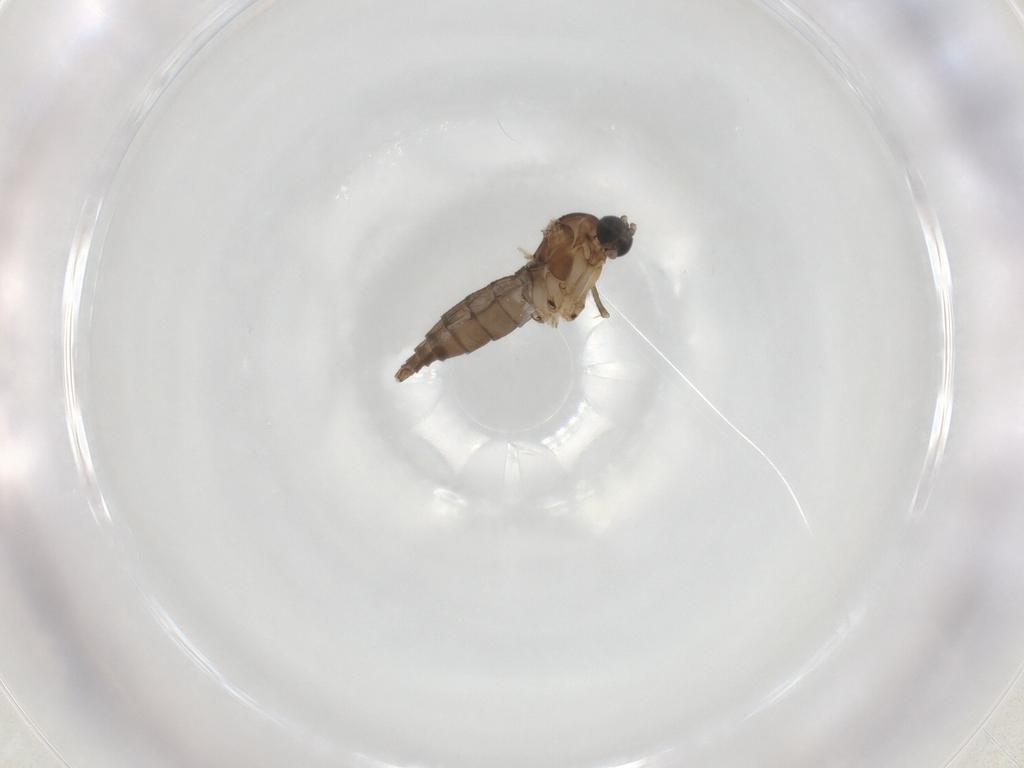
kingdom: Animalia
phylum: Arthropoda
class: Insecta
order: Diptera
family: Sciaridae
